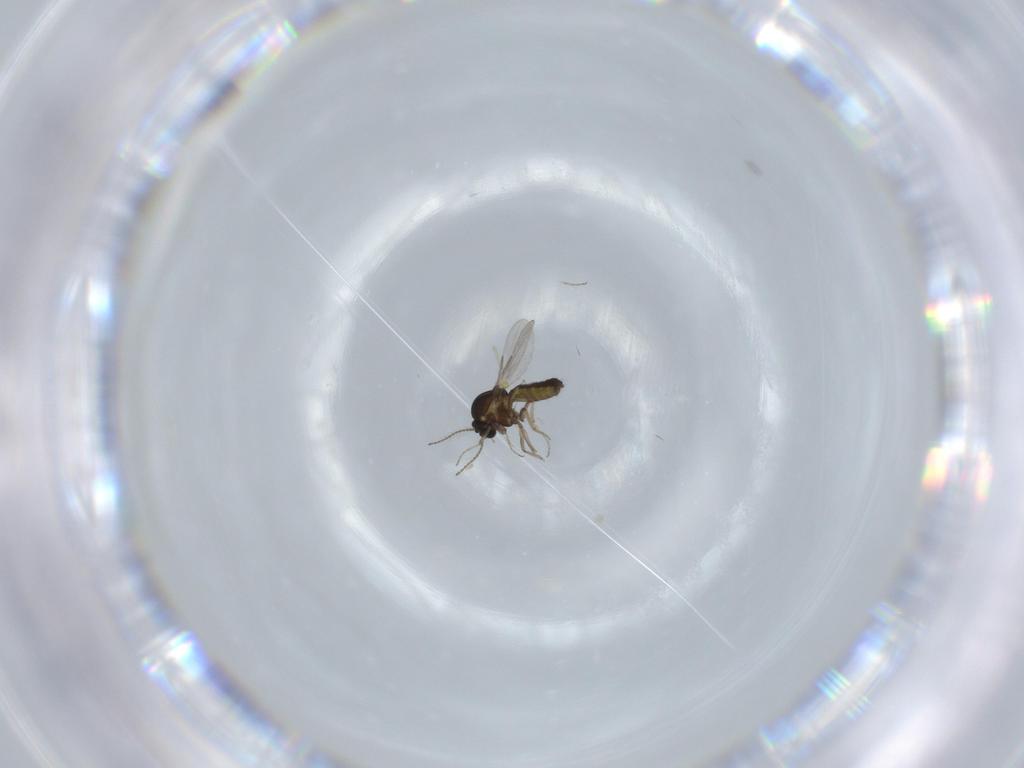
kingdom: Animalia
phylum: Arthropoda
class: Insecta
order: Diptera
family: Ceratopogonidae
